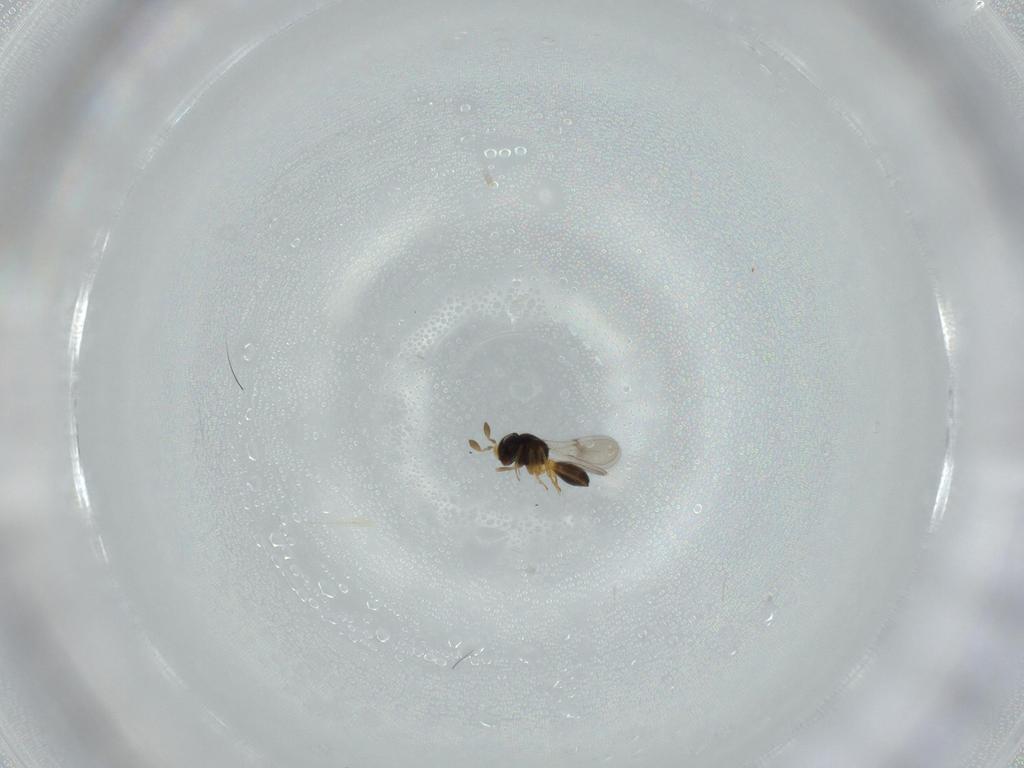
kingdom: Animalia
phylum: Arthropoda
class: Insecta
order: Hymenoptera
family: Scelionidae
